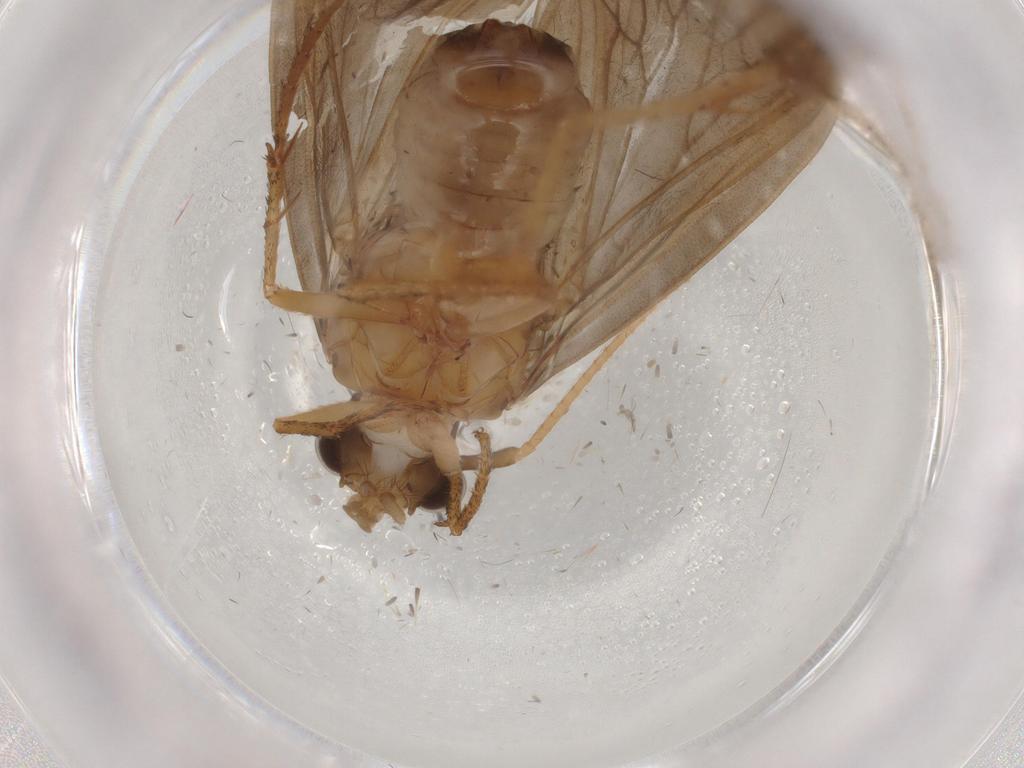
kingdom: Animalia
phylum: Arthropoda
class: Insecta
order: Trichoptera
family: Lepidostomatidae
